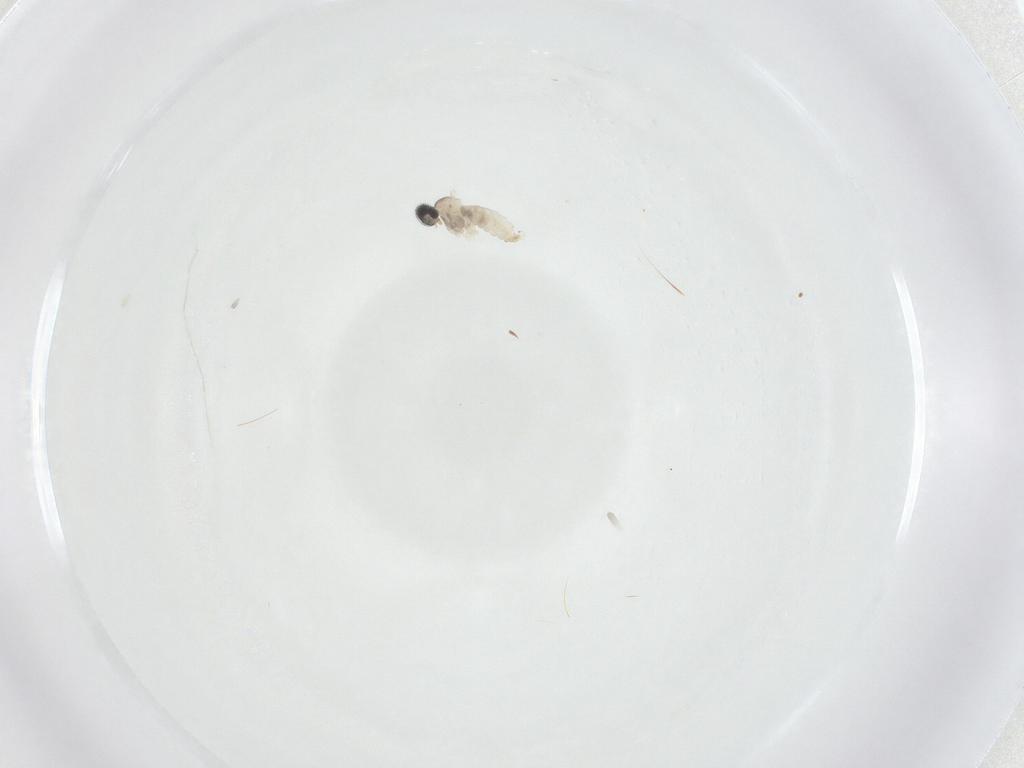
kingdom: Animalia
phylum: Arthropoda
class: Insecta
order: Diptera
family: Cecidomyiidae
